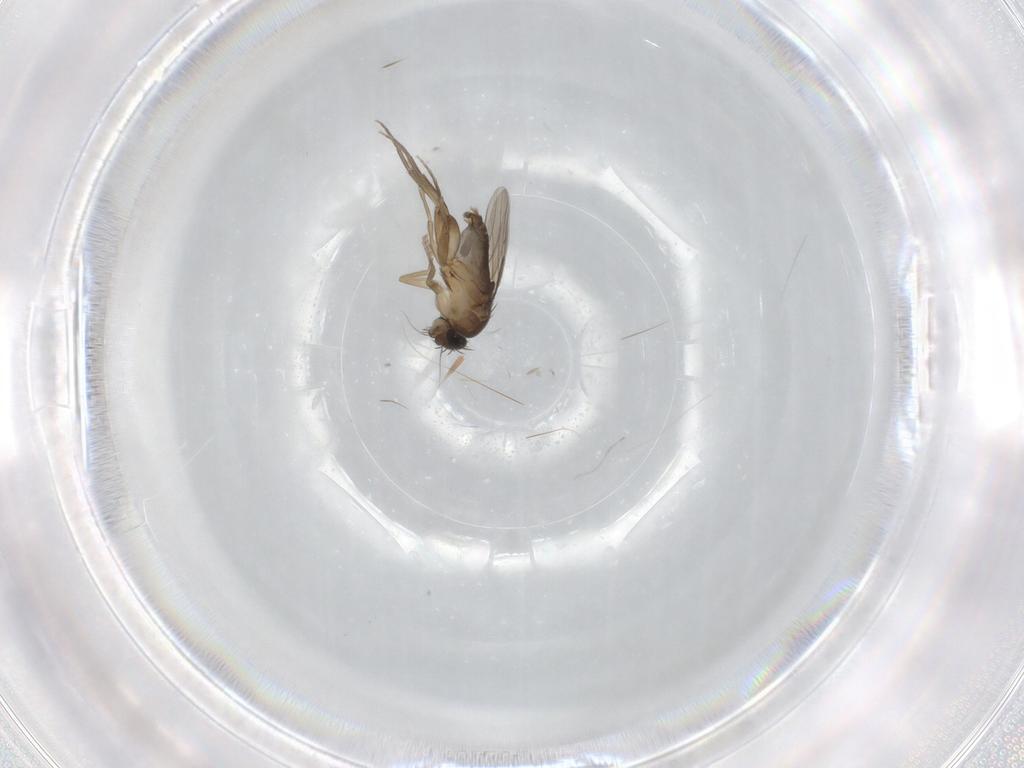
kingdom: Animalia
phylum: Arthropoda
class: Insecta
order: Diptera
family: Phoridae
